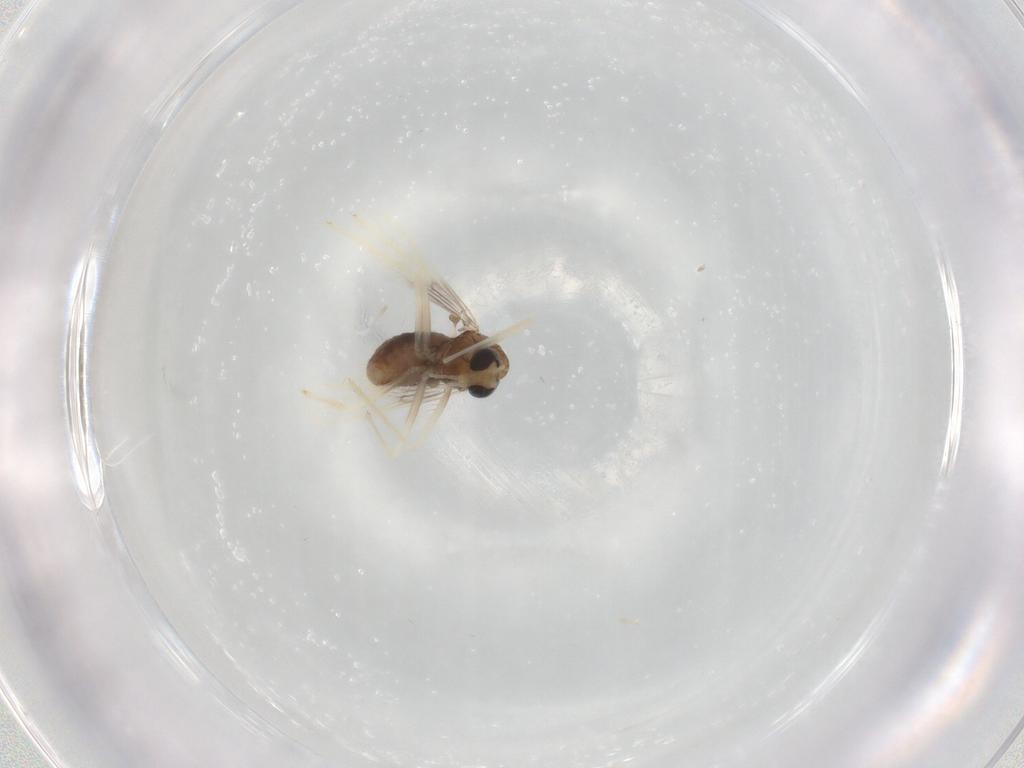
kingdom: Animalia
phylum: Arthropoda
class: Insecta
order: Diptera
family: Chironomidae
